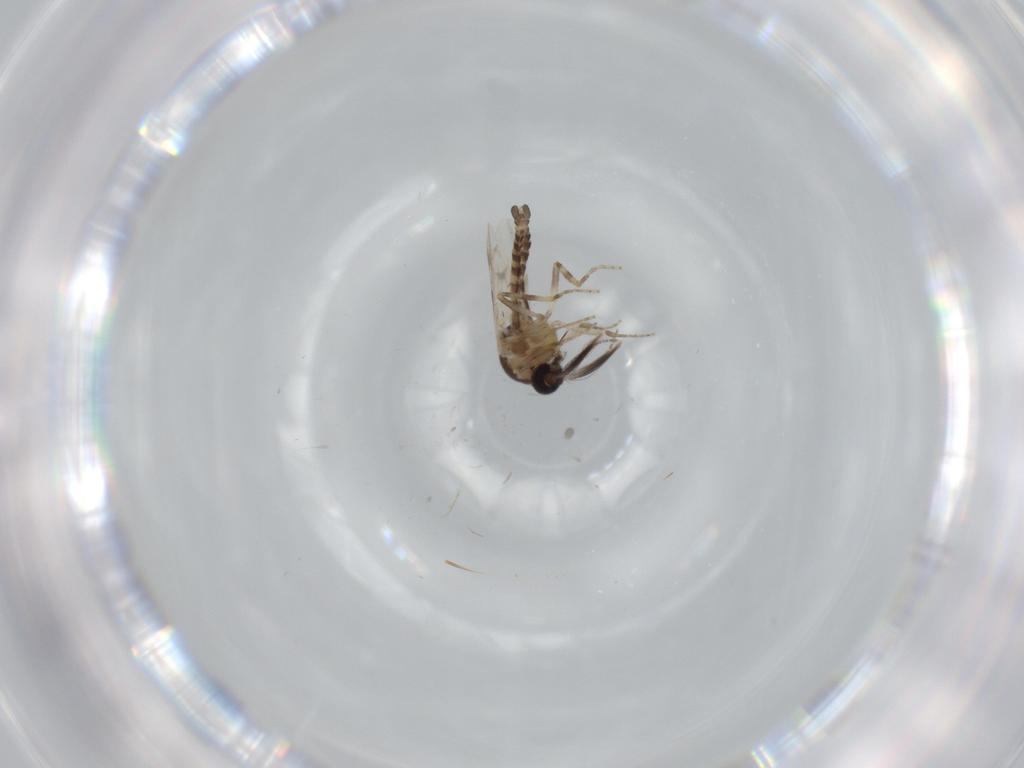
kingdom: Animalia
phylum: Arthropoda
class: Insecta
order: Diptera
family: Ceratopogonidae
